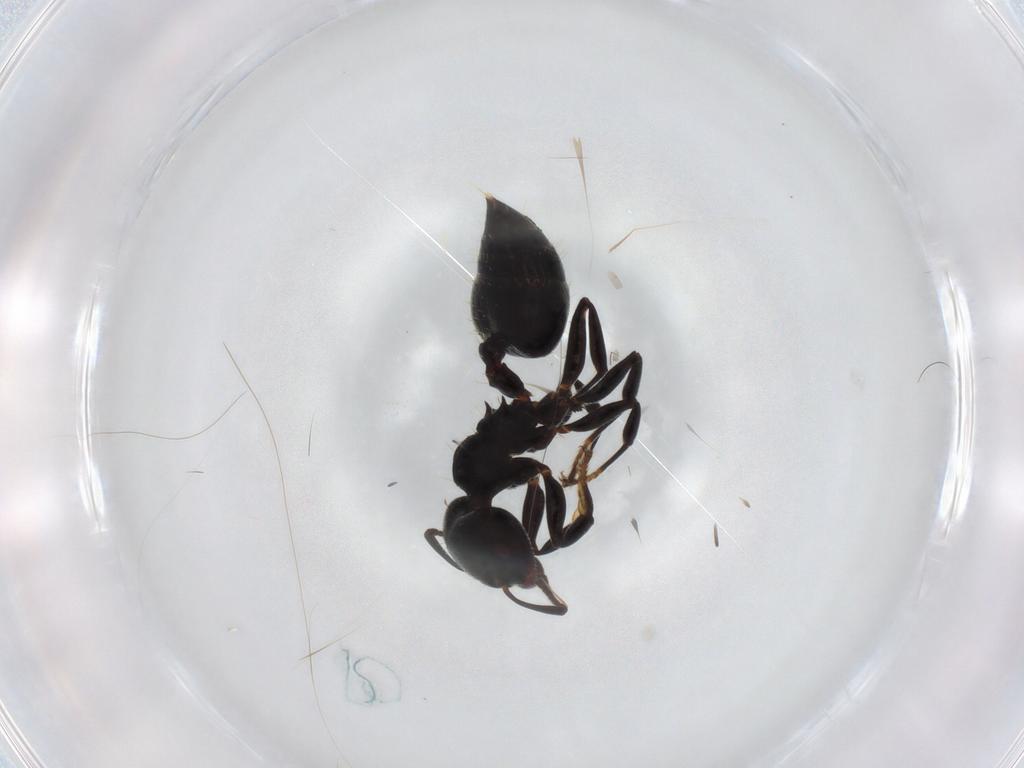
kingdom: Animalia
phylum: Arthropoda
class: Insecta
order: Hymenoptera
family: Formicidae
